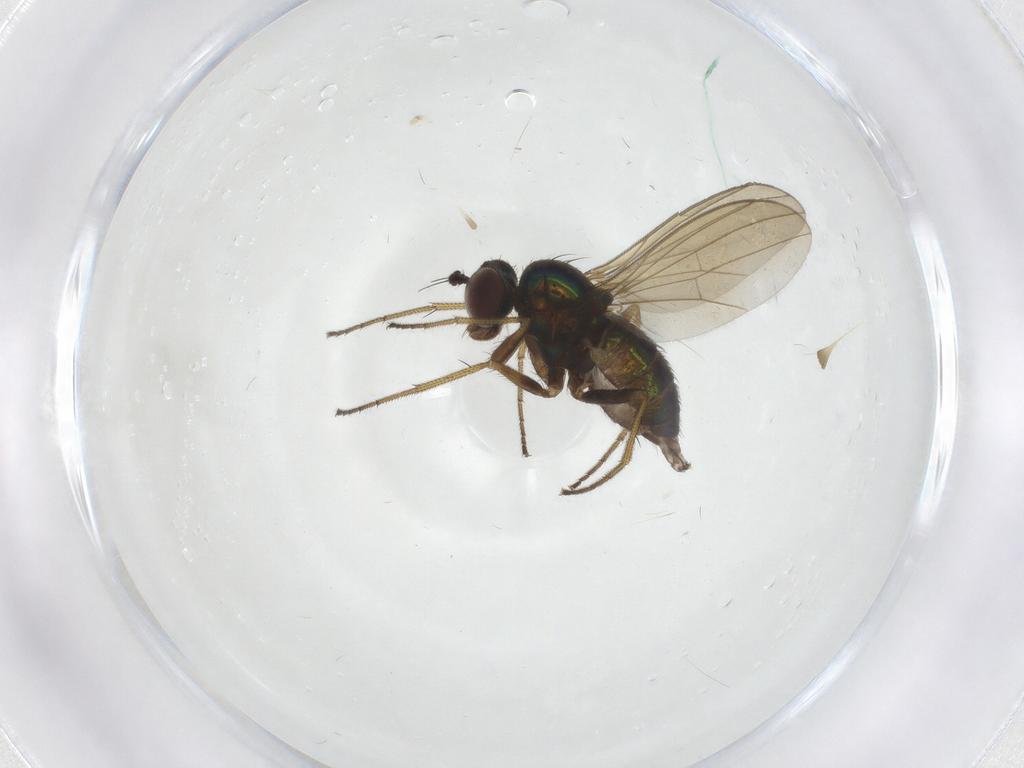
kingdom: Animalia
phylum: Arthropoda
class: Insecta
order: Diptera
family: Dolichopodidae
